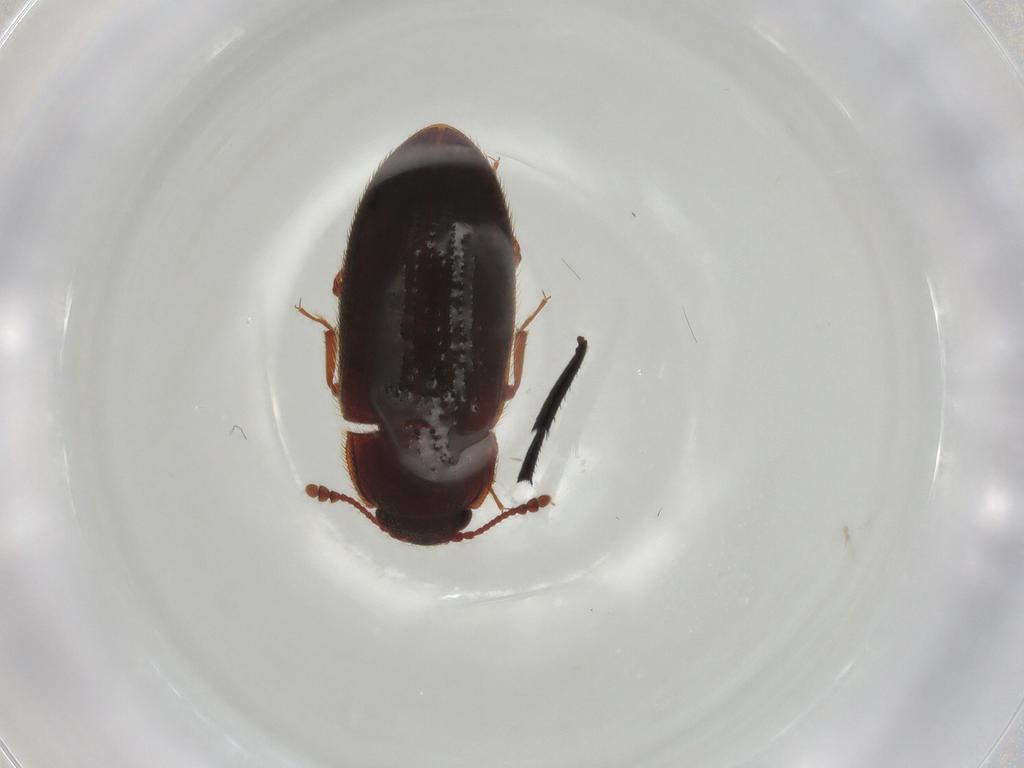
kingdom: Animalia
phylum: Arthropoda
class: Insecta
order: Coleoptera
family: Biphyllidae
